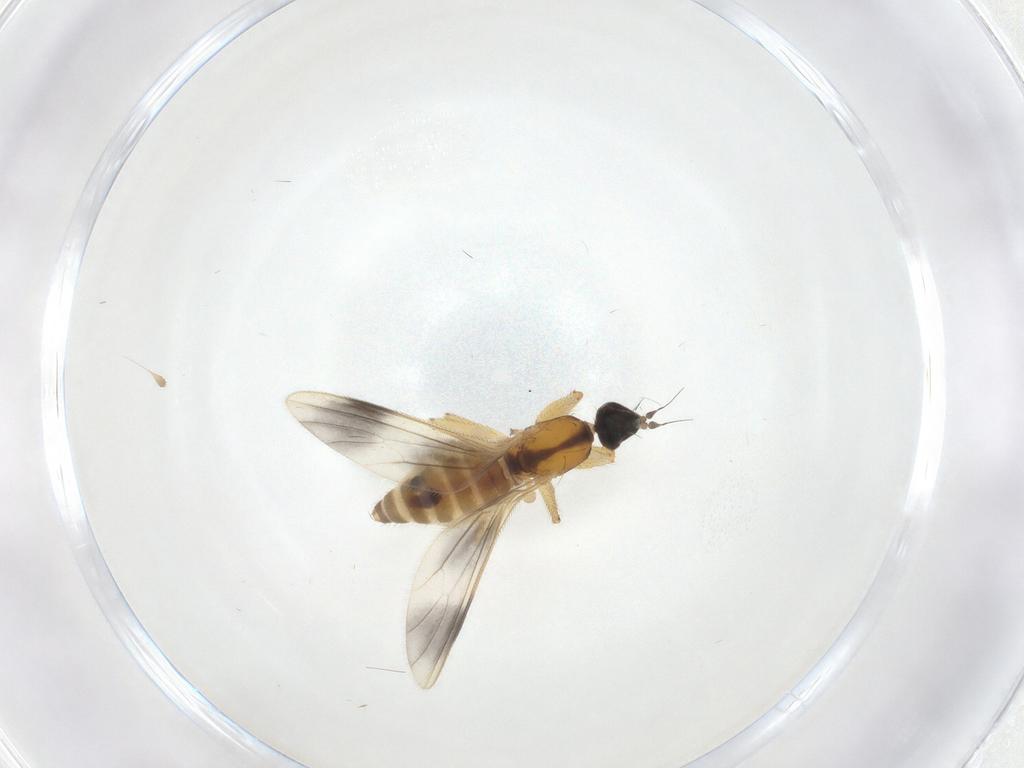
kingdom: Animalia
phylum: Arthropoda
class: Insecta
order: Diptera
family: Empididae
